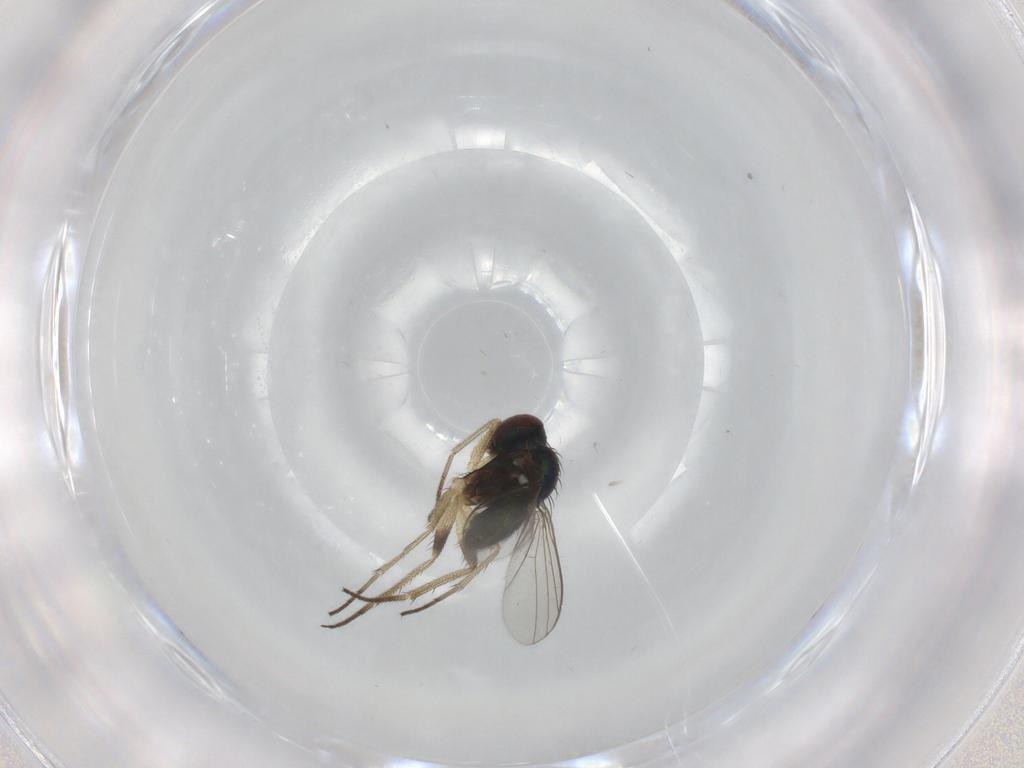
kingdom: Animalia
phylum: Arthropoda
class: Insecta
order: Diptera
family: Dolichopodidae
